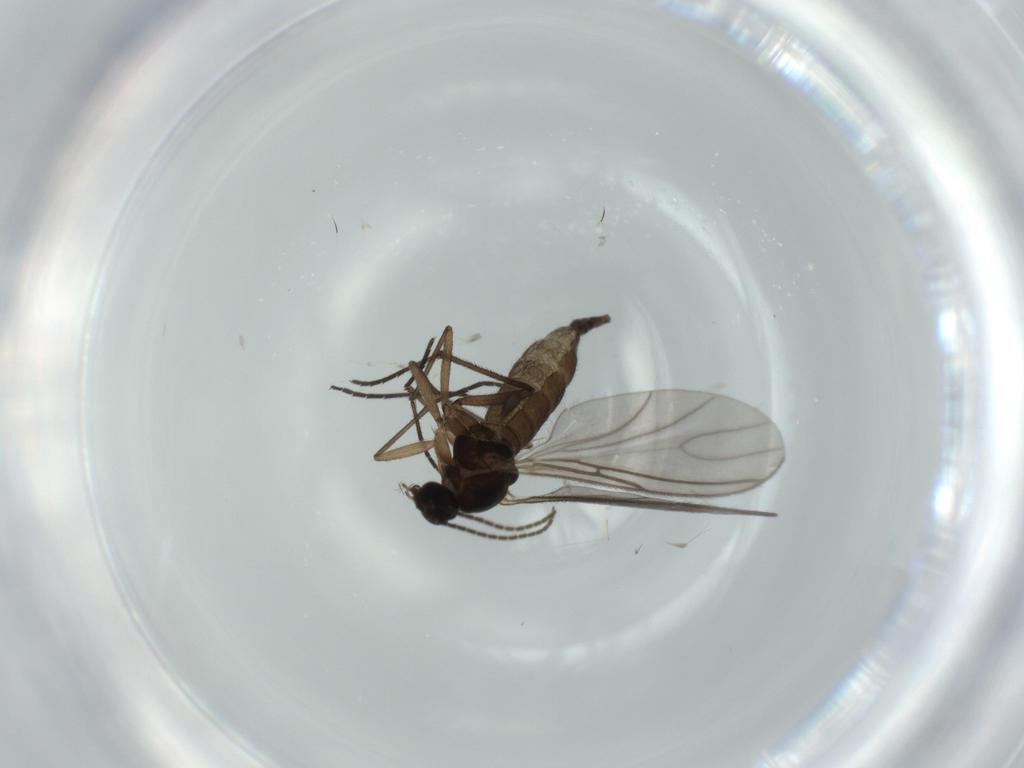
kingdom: Animalia
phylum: Arthropoda
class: Insecta
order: Diptera
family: Sciaridae
